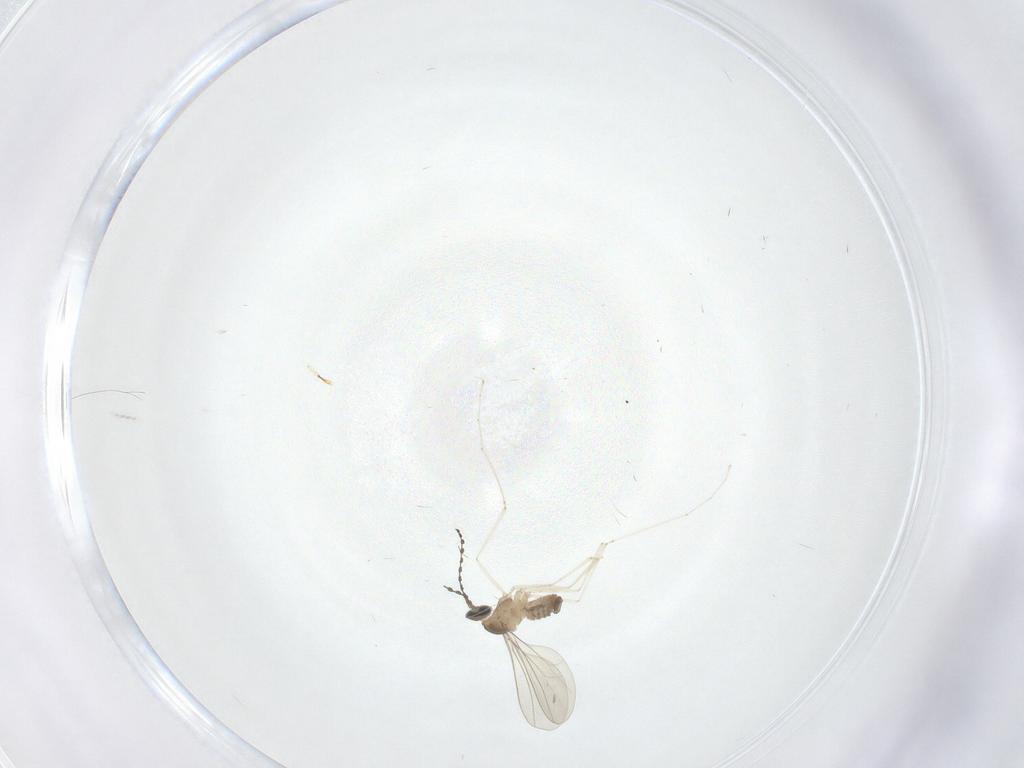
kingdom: Animalia
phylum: Arthropoda
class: Insecta
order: Diptera
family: Cecidomyiidae
